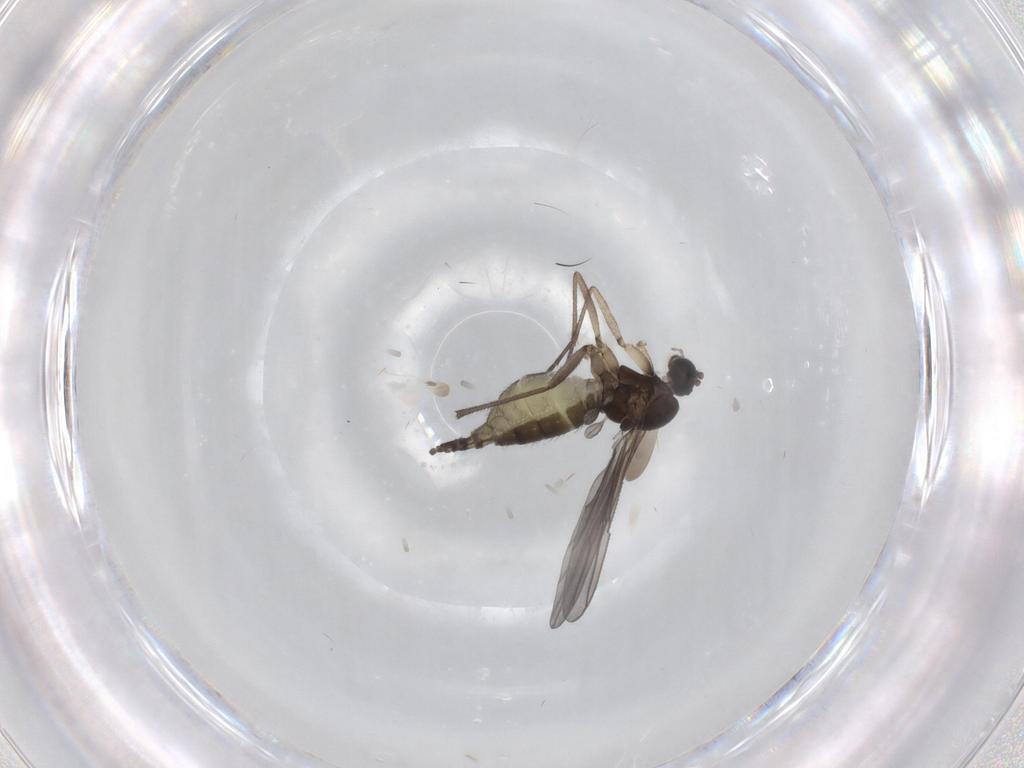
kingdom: Animalia
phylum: Arthropoda
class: Insecta
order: Diptera
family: Sciaridae
